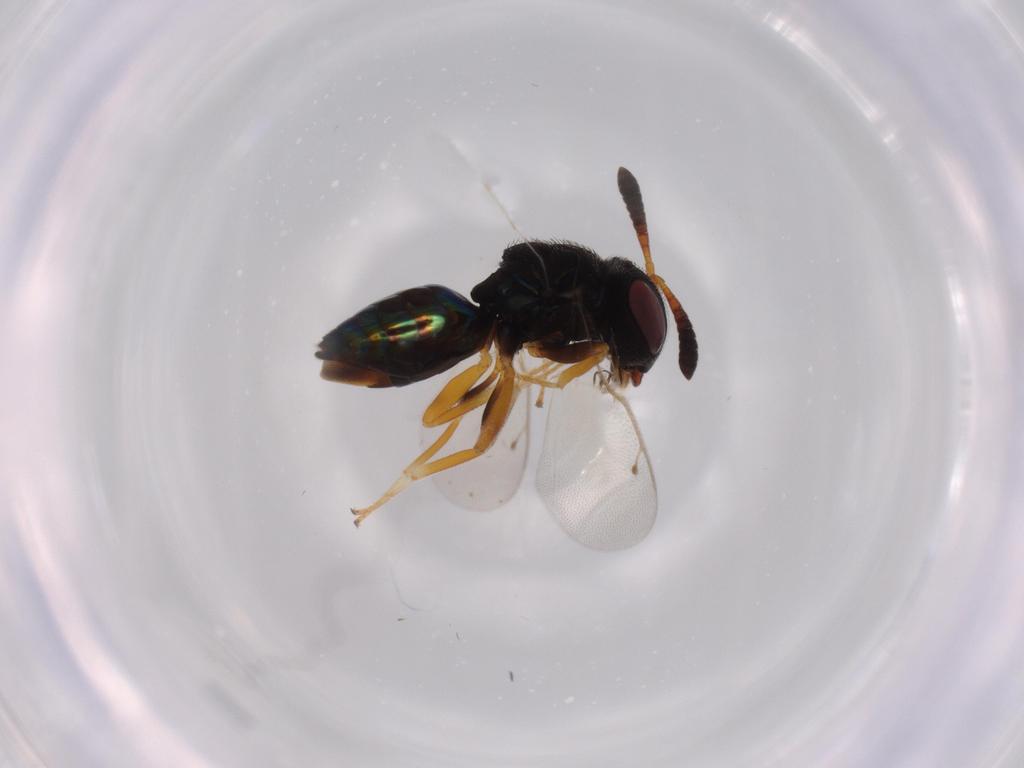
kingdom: Animalia
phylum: Arthropoda
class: Insecta
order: Hymenoptera
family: Agaonidae
